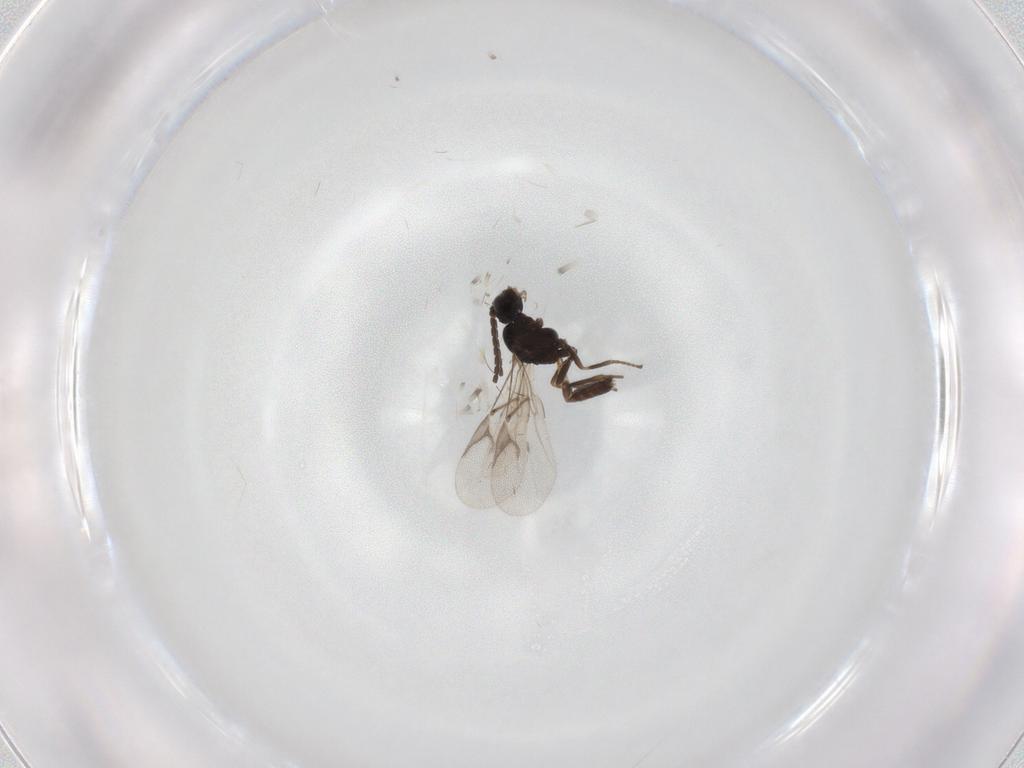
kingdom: Animalia
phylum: Arthropoda
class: Insecta
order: Hymenoptera
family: Braconidae
